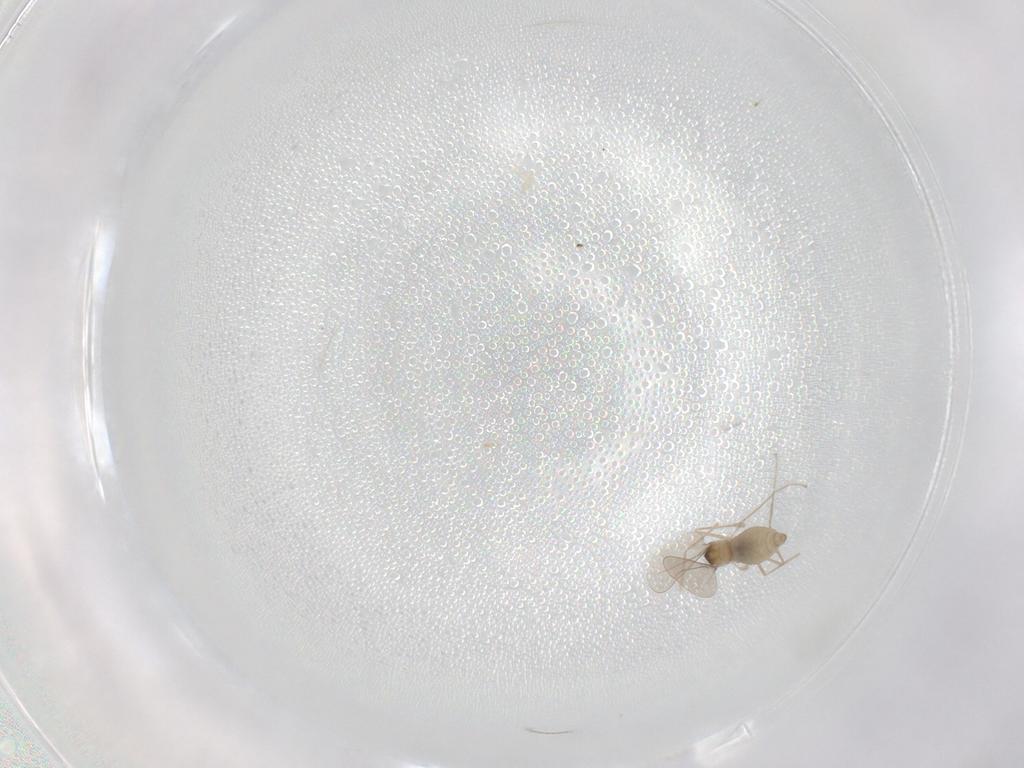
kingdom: Animalia
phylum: Arthropoda
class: Insecta
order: Diptera
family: Cecidomyiidae
